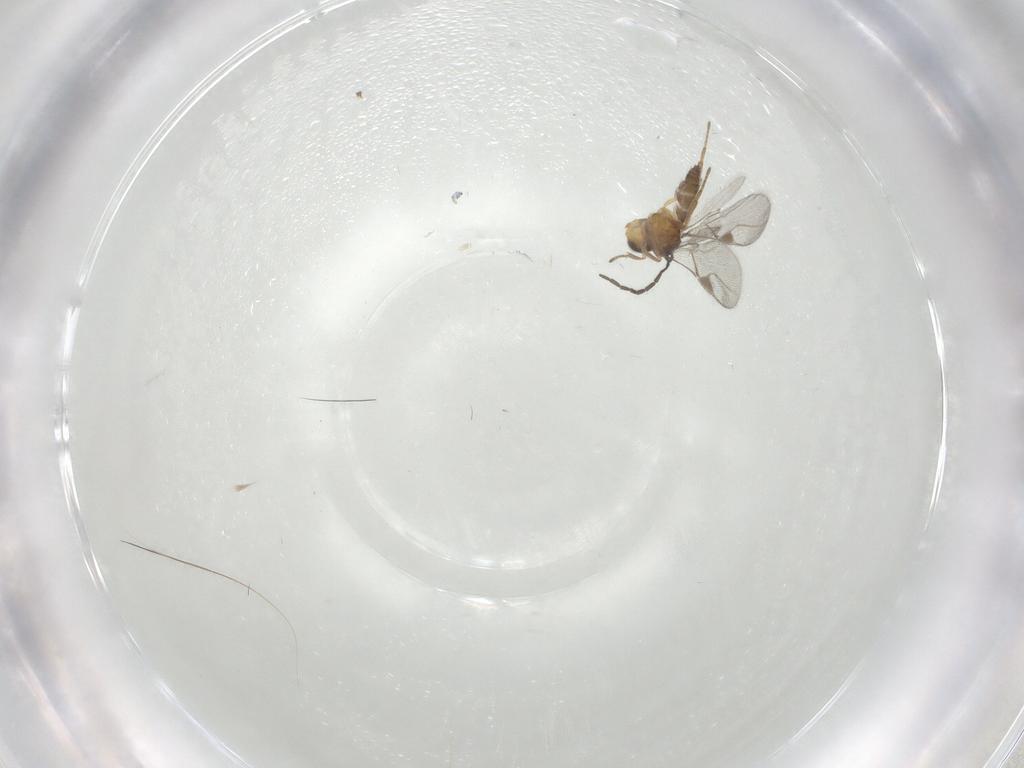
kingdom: Animalia
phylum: Arthropoda
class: Insecta
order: Hymenoptera
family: Braconidae
